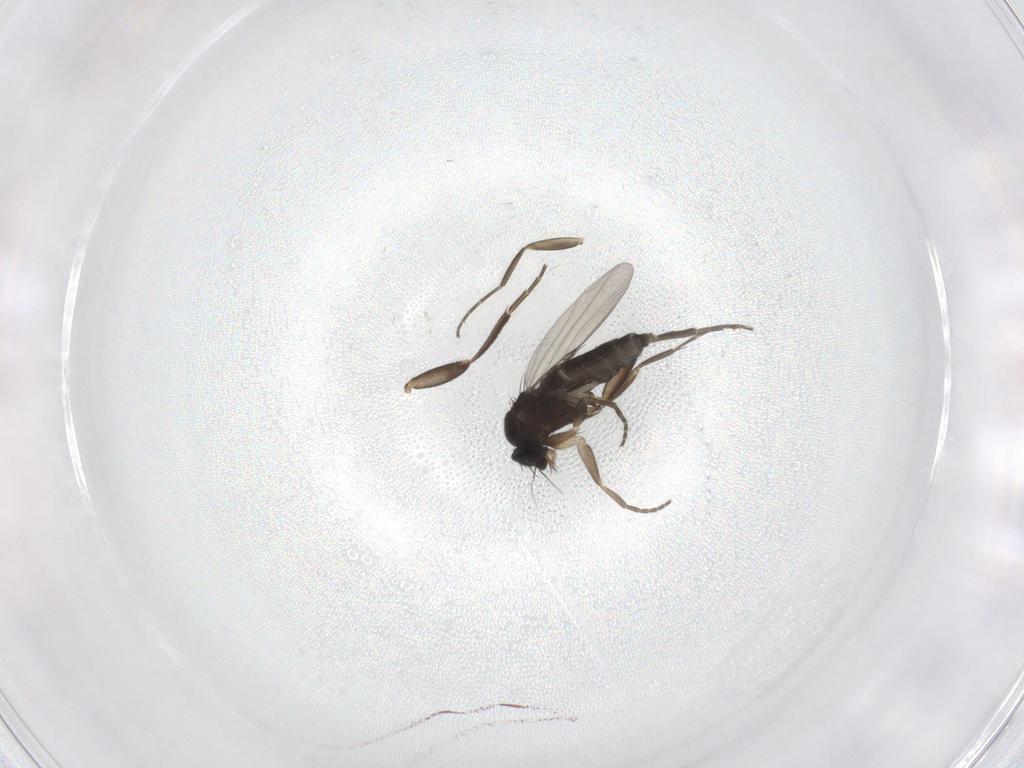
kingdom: Animalia
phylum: Arthropoda
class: Insecta
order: Diptera
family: Phoridae
